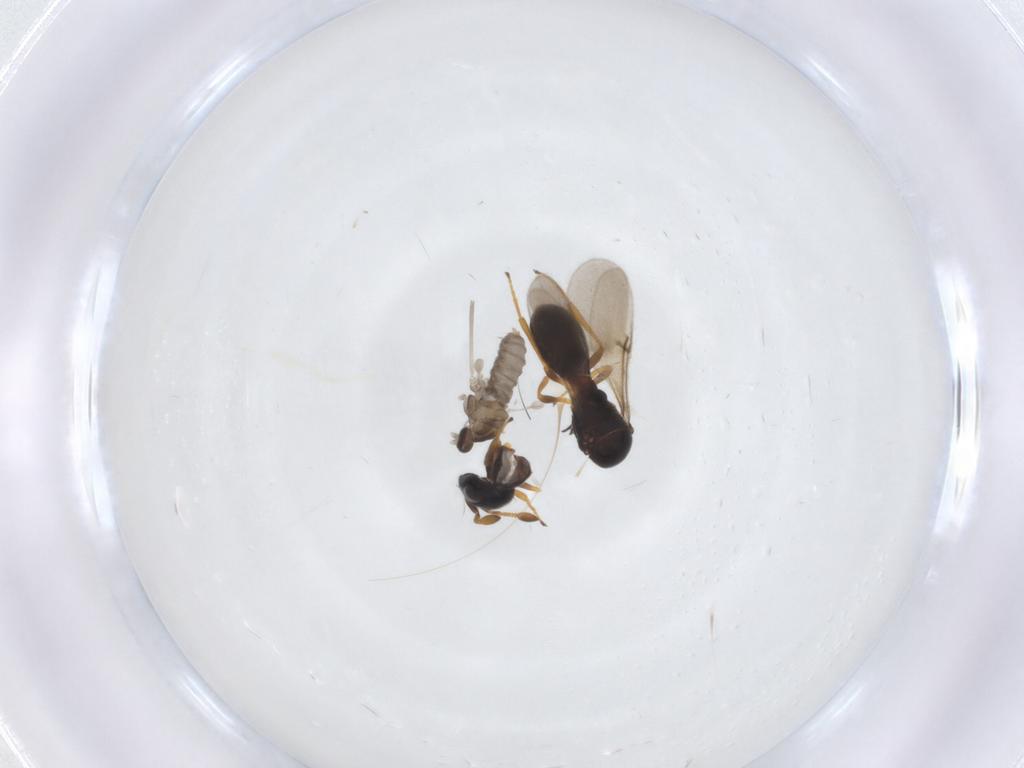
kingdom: Animalia
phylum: Arthropoda
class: Insecta
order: Hymenoptera
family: Scelionidae
